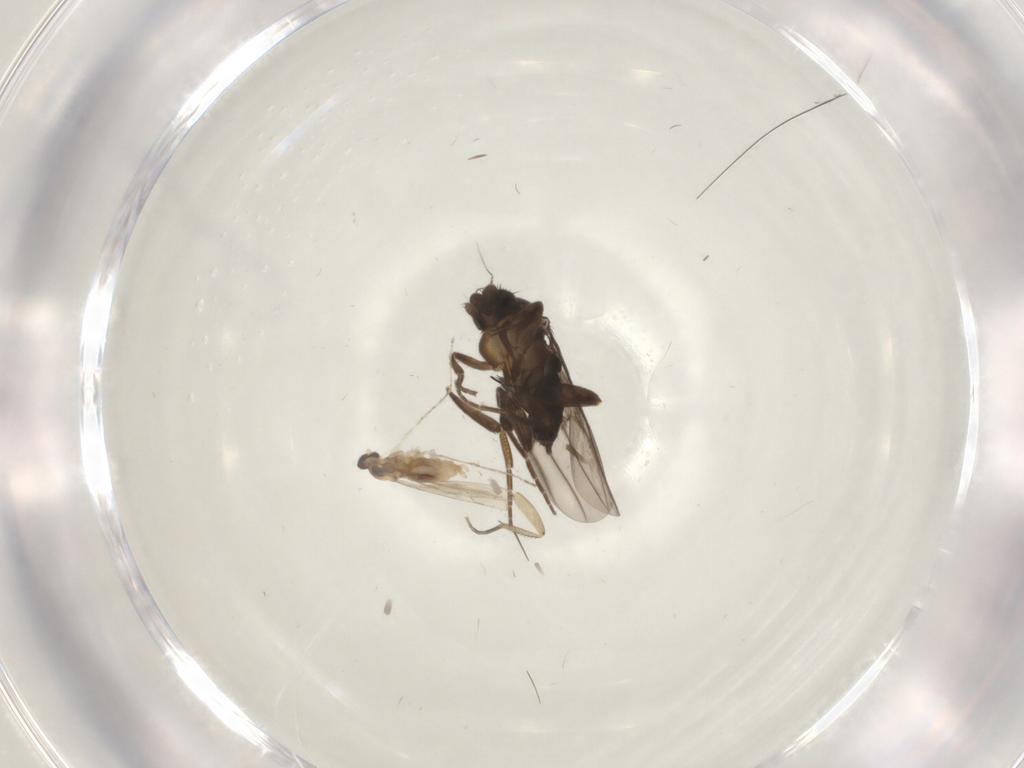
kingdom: Animalia
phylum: Arthropoda
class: Insecta
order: Diptera
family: Phoridae
